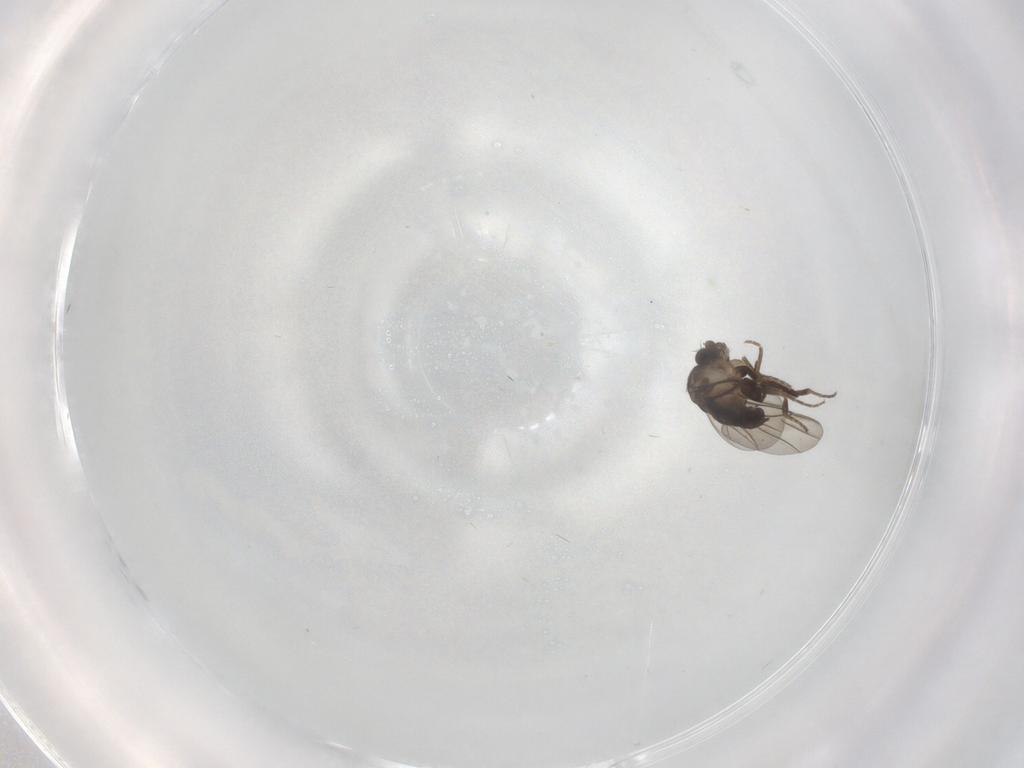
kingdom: Animalia
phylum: Arthropoda
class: Insecta
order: Diptera
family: Phoridae
